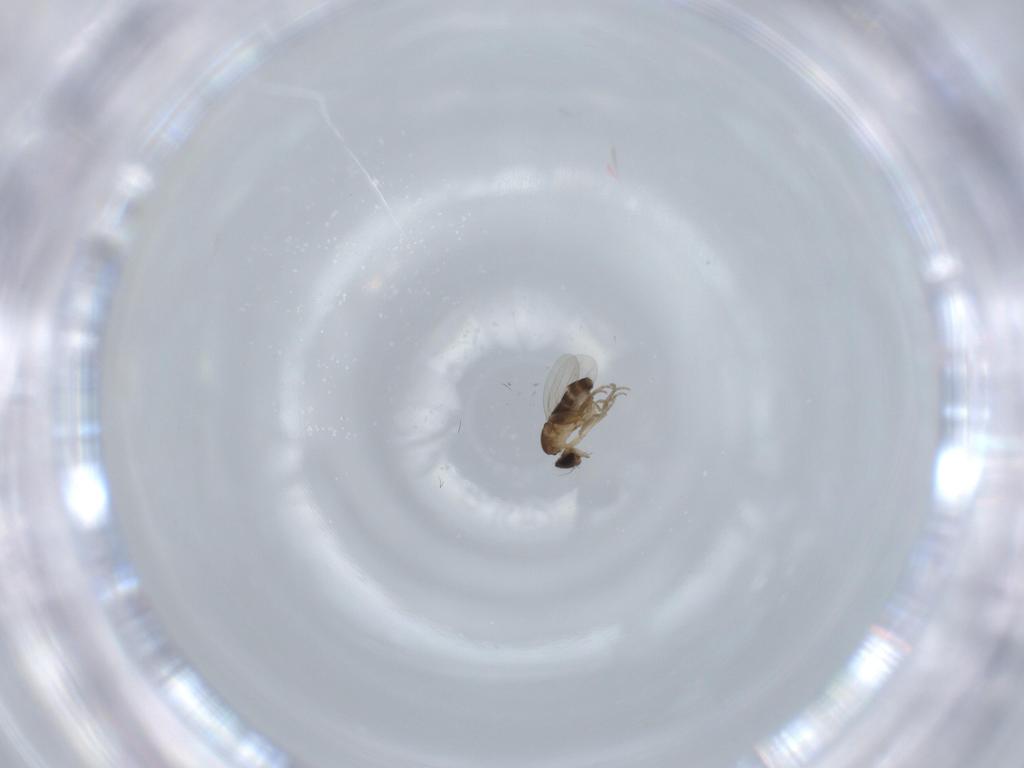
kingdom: Animalia
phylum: Arthropoda
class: Insecta
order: Diptera
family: Phoridae
